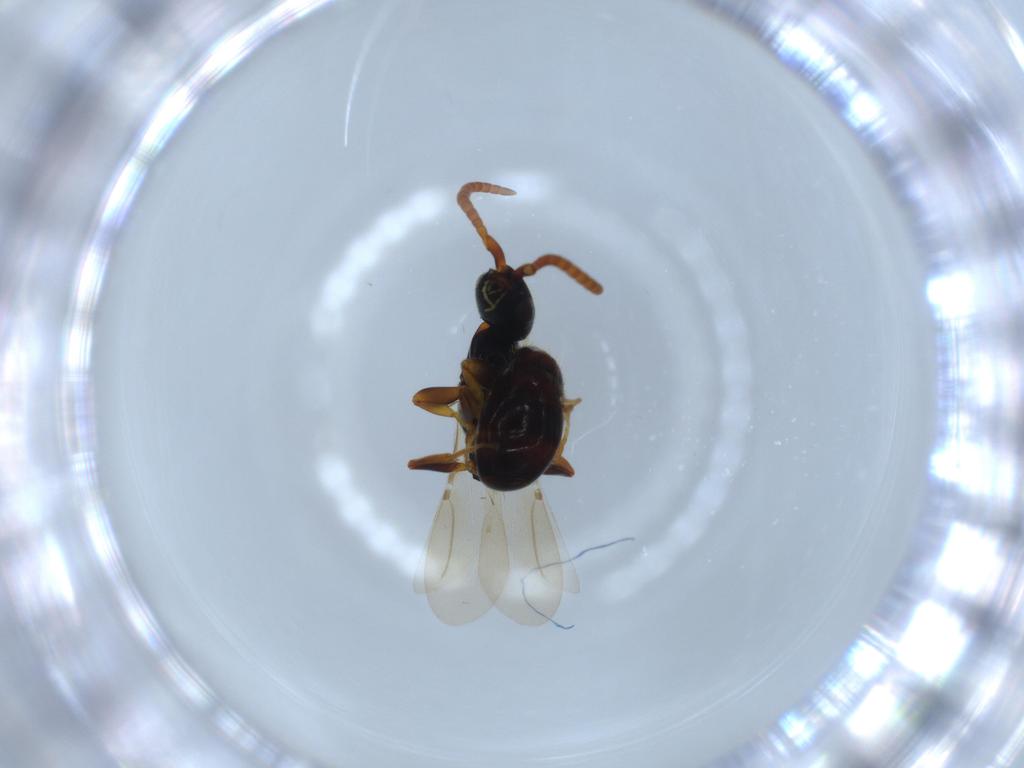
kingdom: Animalia
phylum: Arthropoda
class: Insecta
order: Hymenoptera
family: Bethylidae
